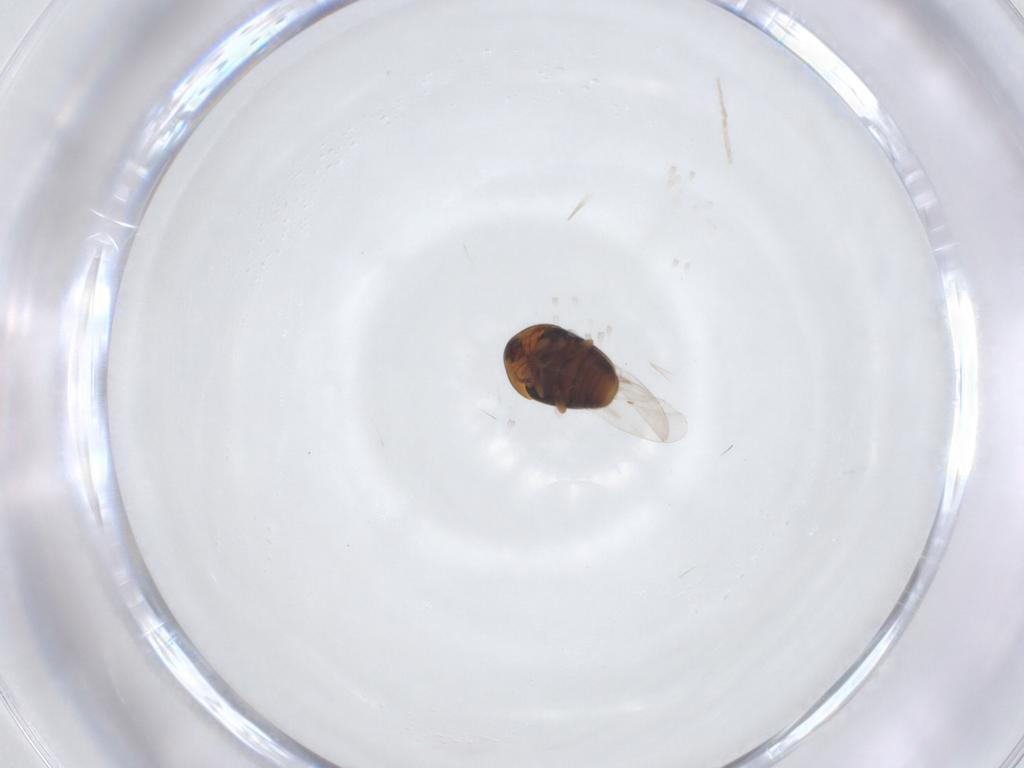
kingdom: Animalia
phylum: Arthropoda
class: Insecta
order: Coleoptera
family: Corylophidae
